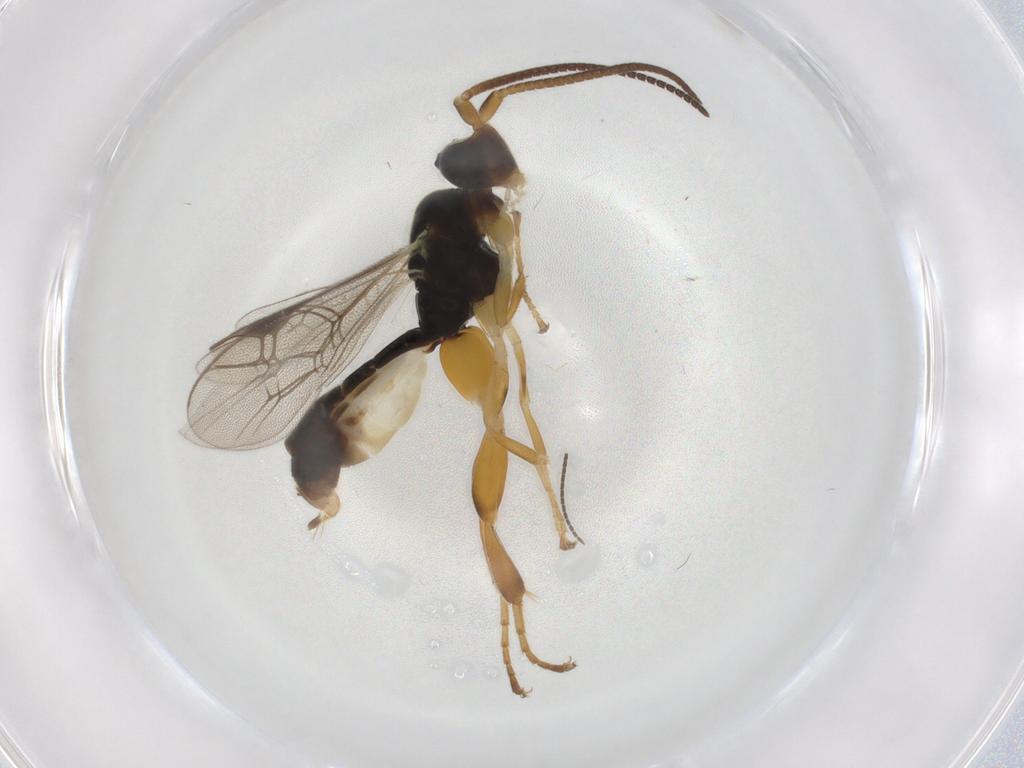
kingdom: Animalia
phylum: Arthropoda
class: Insecta
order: Hymenoptera
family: Ichneumonidae
